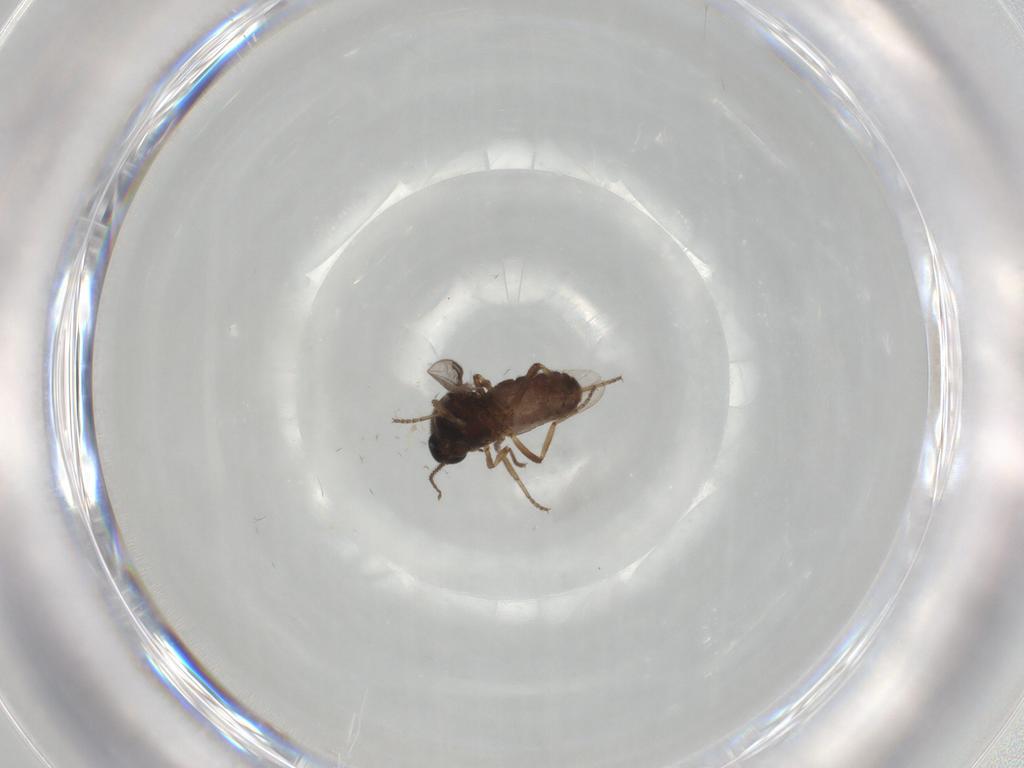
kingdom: Animalia
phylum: Arthropoda
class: Insecta
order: Diptera
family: Ceratopogonidae
